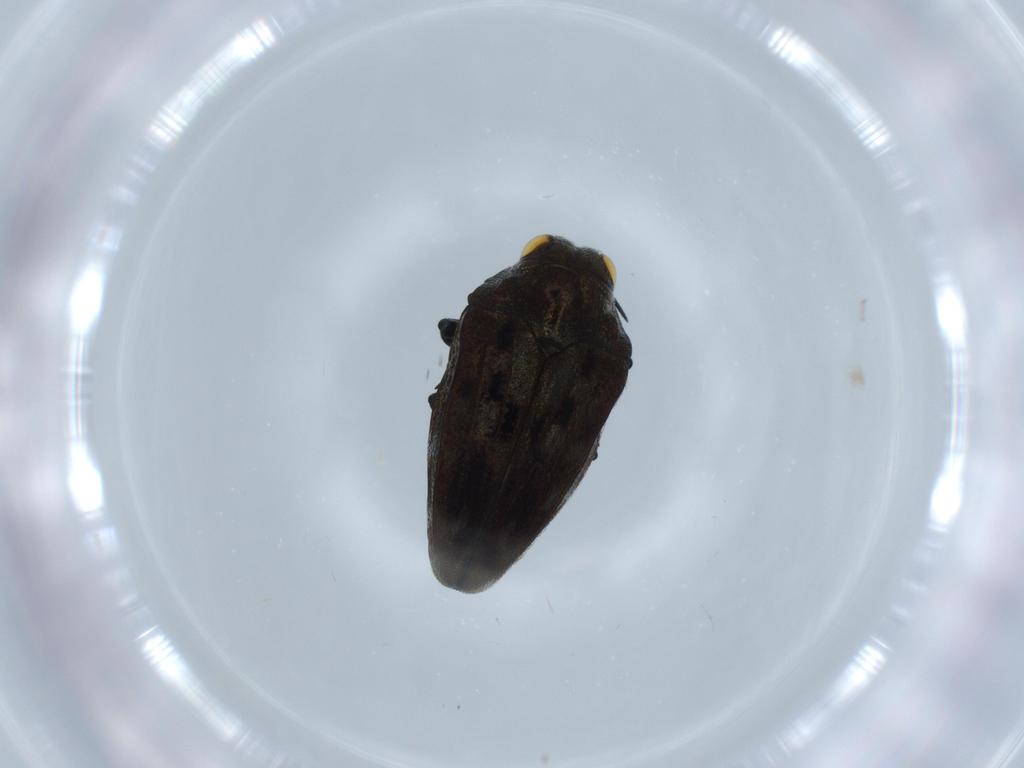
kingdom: Animalia
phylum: Arthropoda
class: Insecta
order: Coleoptera
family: Buprestidae
